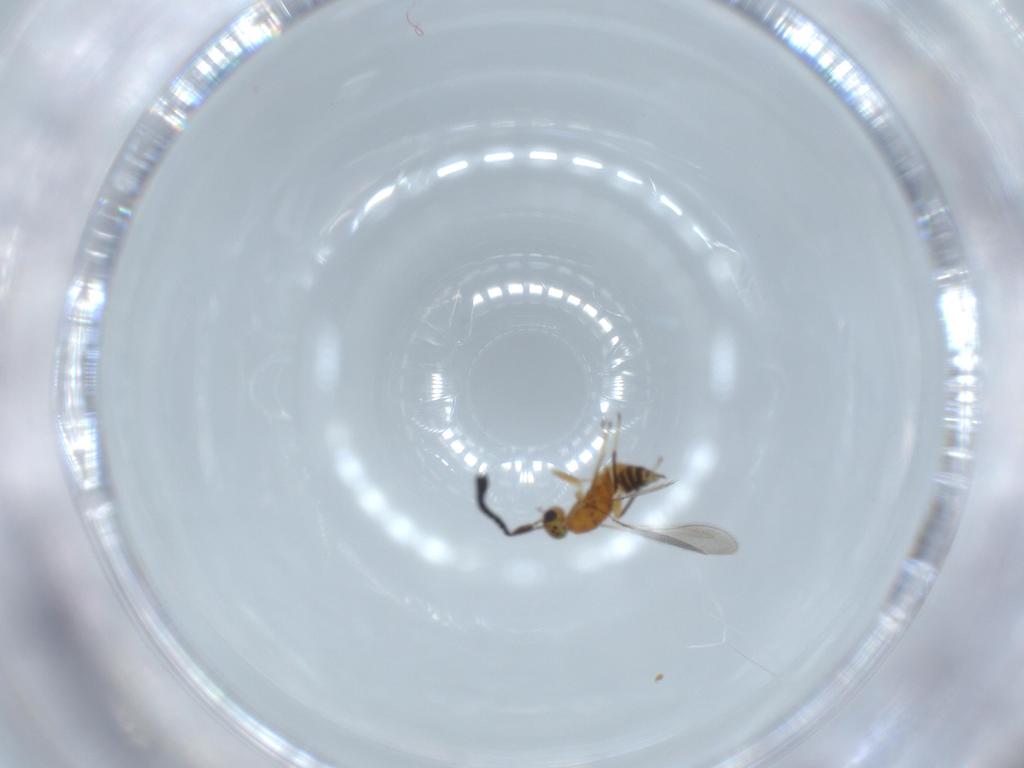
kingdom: Animalia
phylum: Arthropoda
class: Insecta
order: Hymenoptera
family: Mymaridae
